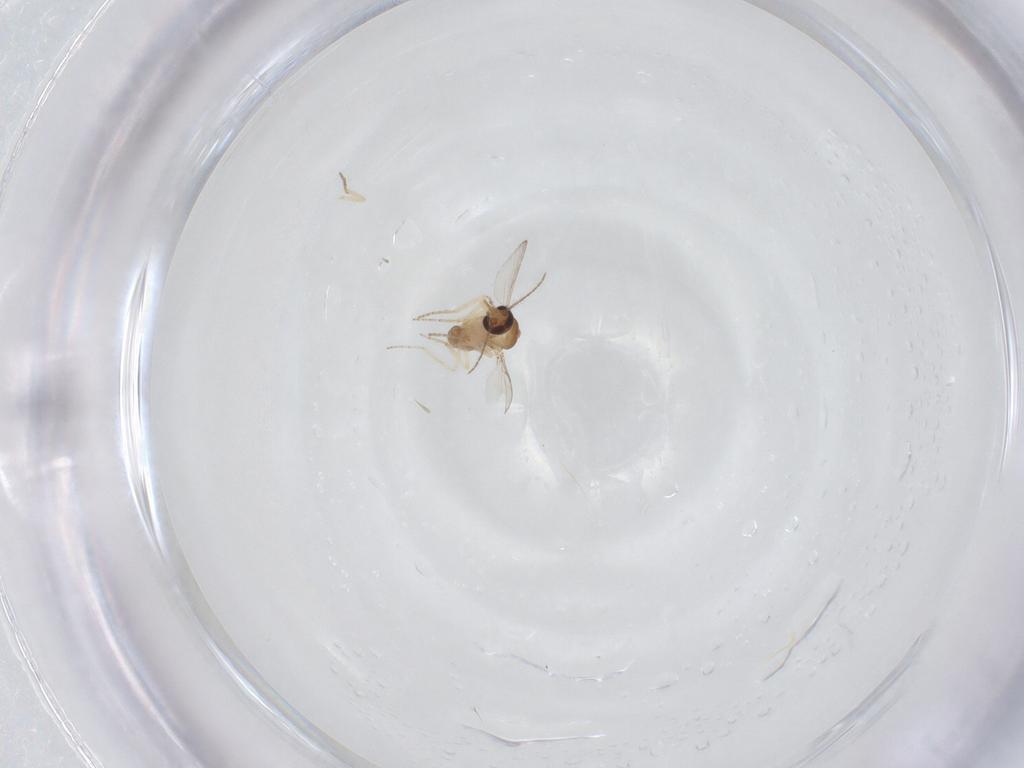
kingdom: Animalia
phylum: Arthropoda
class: Insecta
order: Diptera
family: Ceratopogonidae
